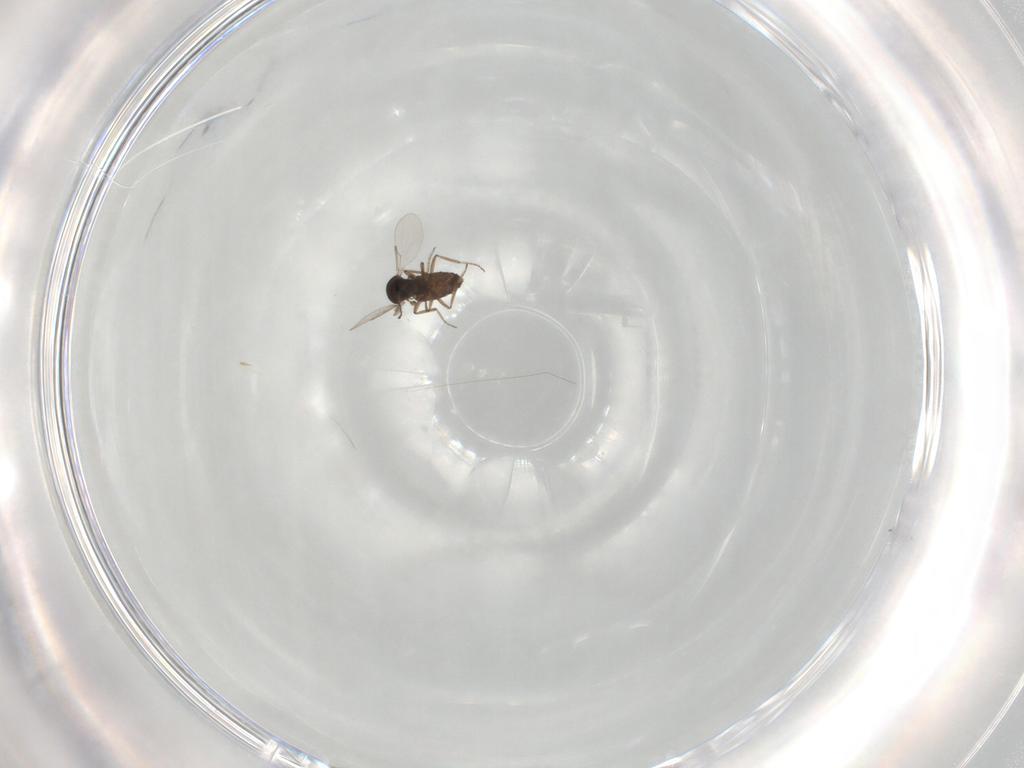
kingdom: Animalia
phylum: Arthropoda
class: Insecta
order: Diptera
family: Cecidomyiidae
